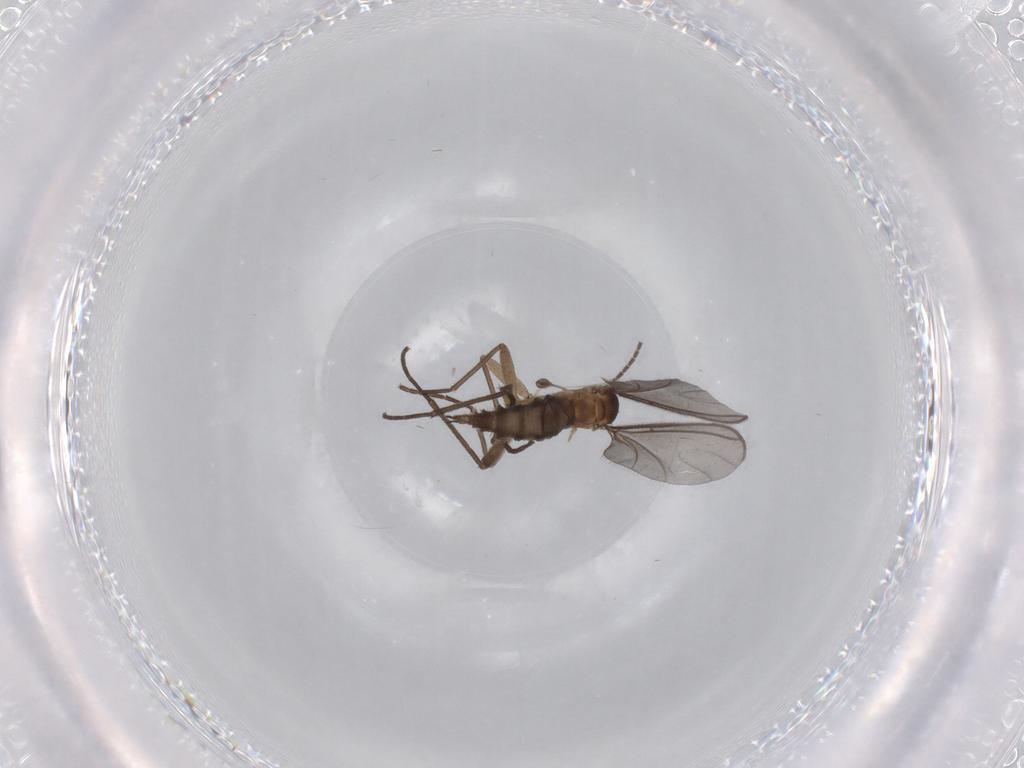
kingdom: Animalia
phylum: Arthropoda
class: Insecta
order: Diptera
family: Sciaridae
